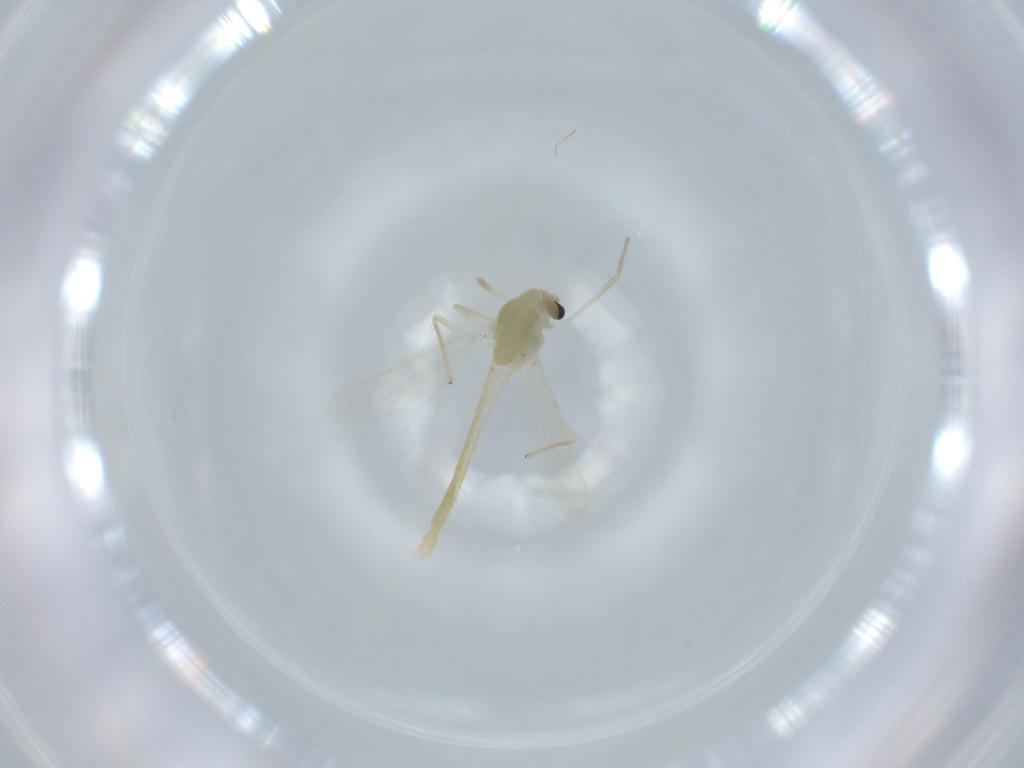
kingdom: Animalia
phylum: Arthropoda
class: Insecta
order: Diptera
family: Chironomidae
